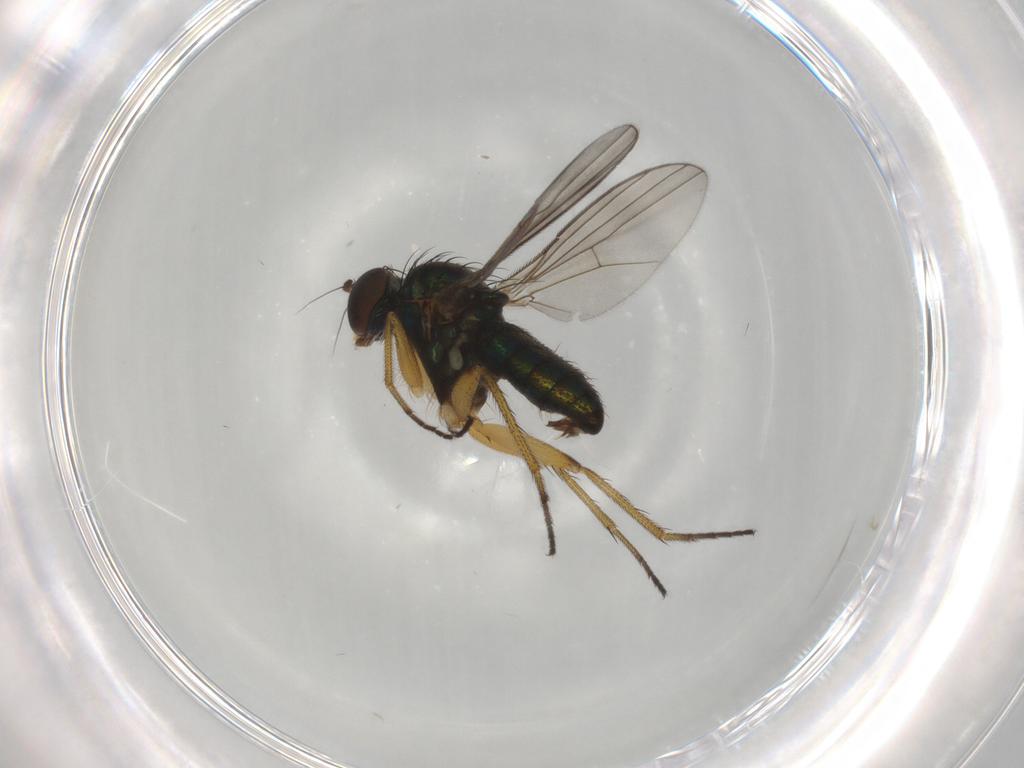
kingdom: Animalia
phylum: Arthropoda
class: Insecta
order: Diptera
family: Dolichopodidae
